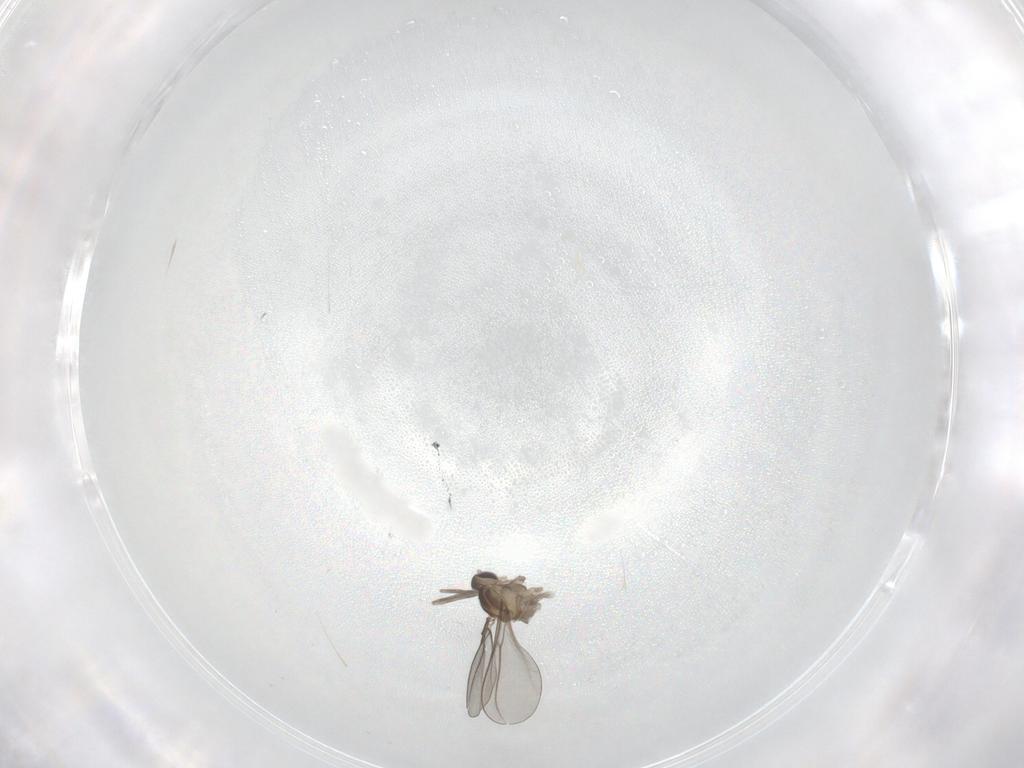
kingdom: Animalia
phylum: Arthropoda
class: Insecta
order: Diptera
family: Cecidomyiidae
